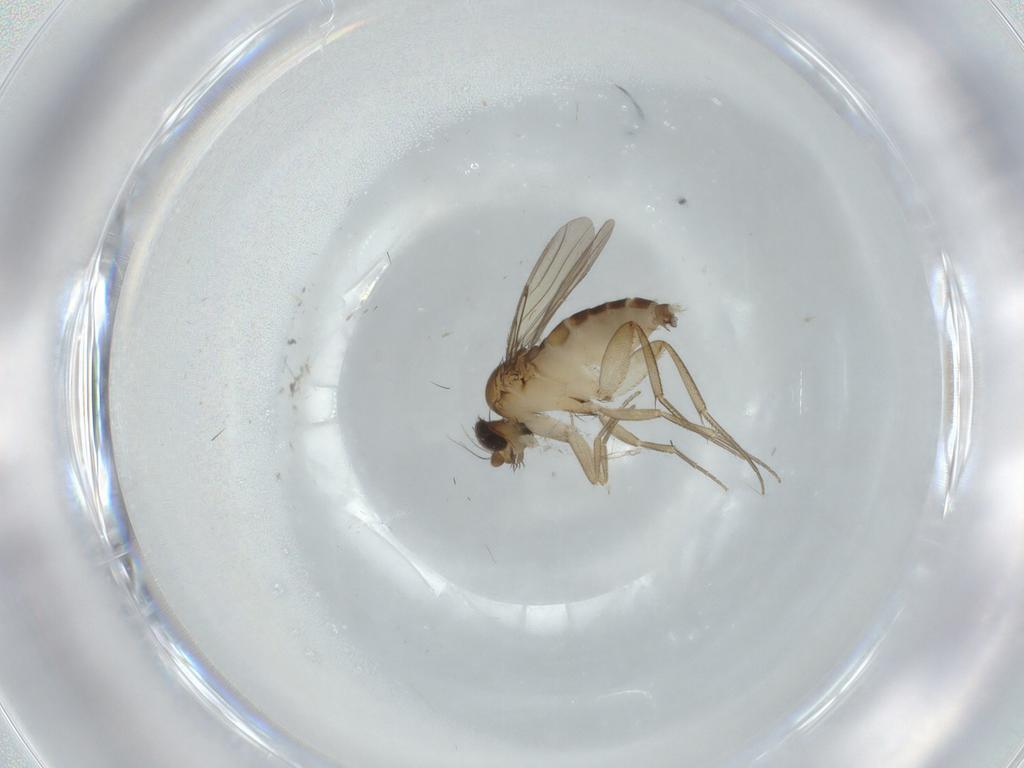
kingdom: Animalia
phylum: Arthropoda
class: Insecta
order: Diptera
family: Phoridae
